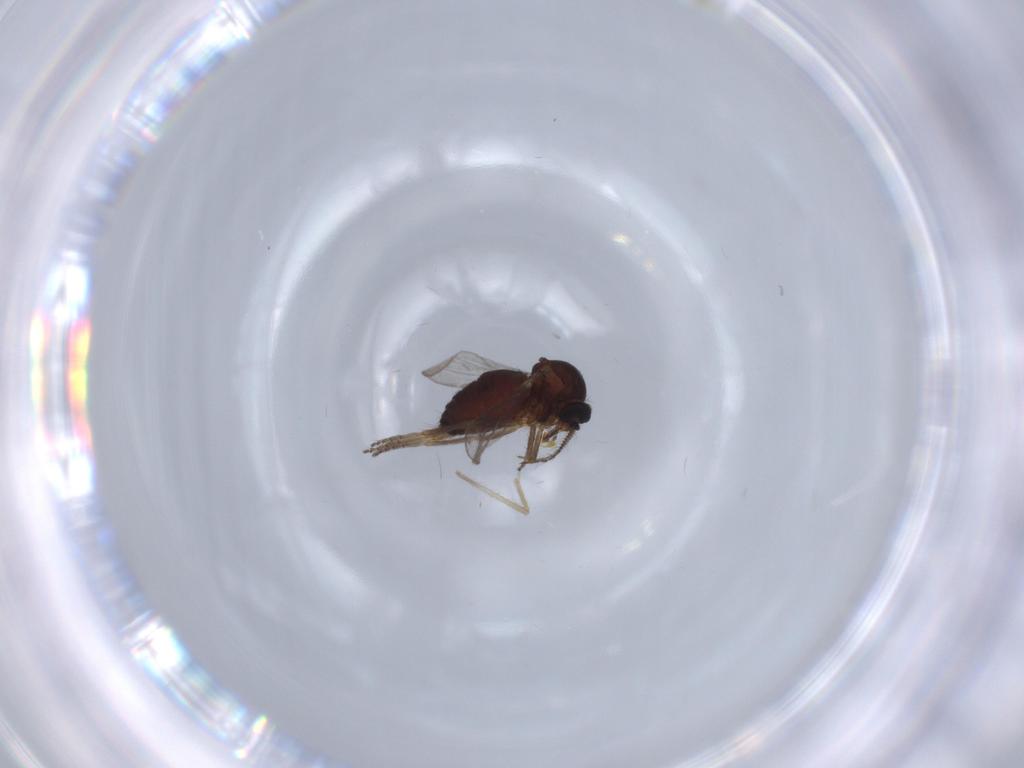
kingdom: Animalia
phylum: Arthropoda
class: Insecta
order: Diptera
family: Ceratopogonidae
